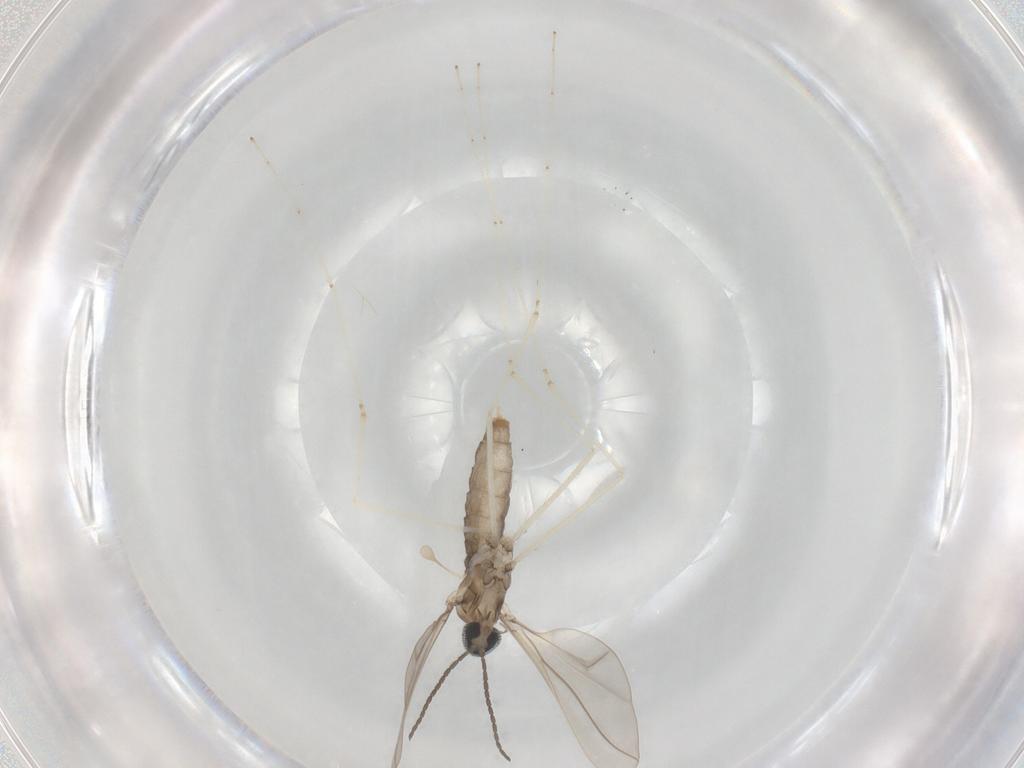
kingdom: Animalia
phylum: Arthropoda
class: Insecta
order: Diptera
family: Cecidomyiidae
